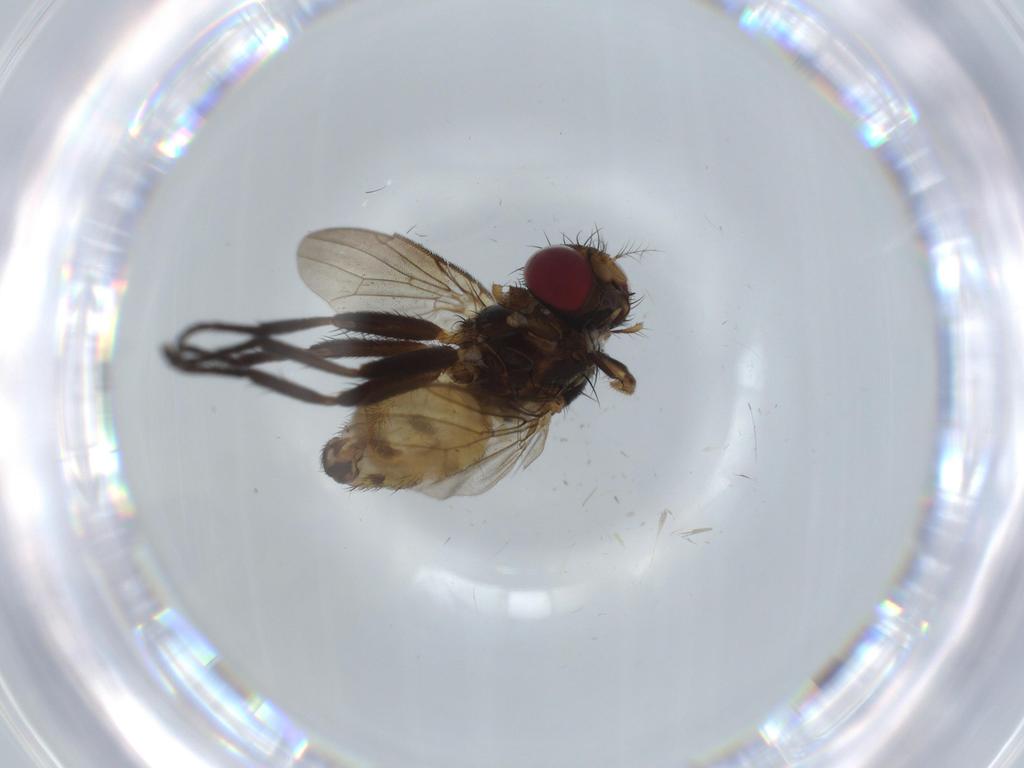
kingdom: Animalia
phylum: Arthropoda
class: Insecta
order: Diptera
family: Anthomyiidae
